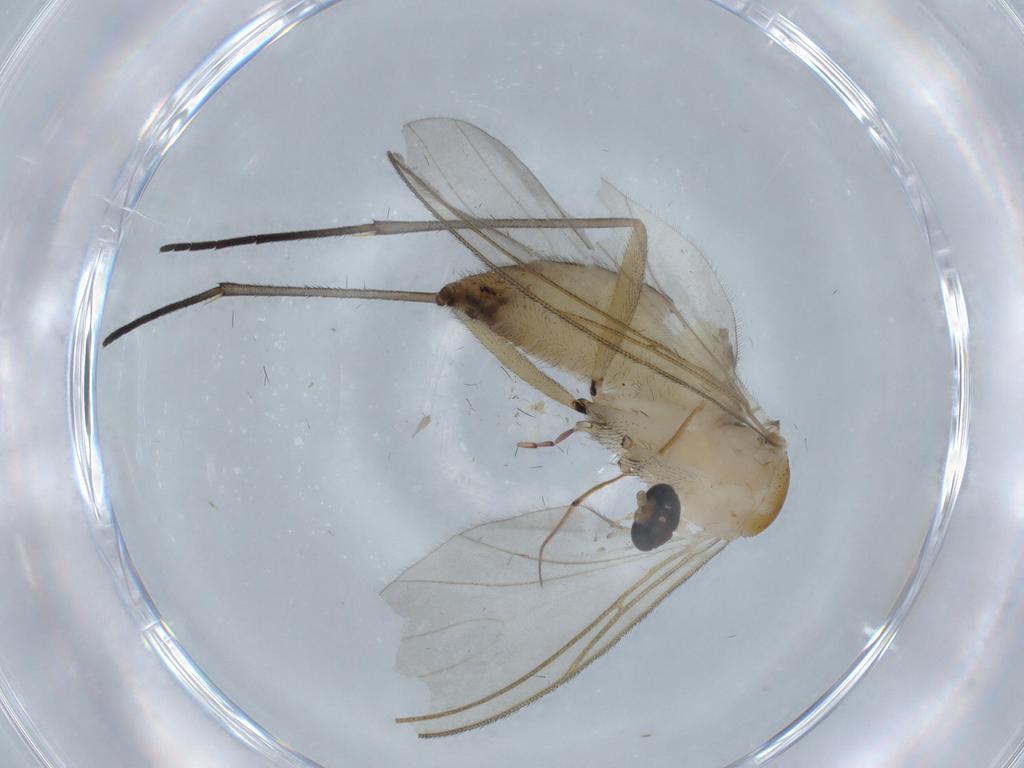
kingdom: Animalia
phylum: Arthropoda
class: Insecta
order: Diptera
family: Sciaridae
